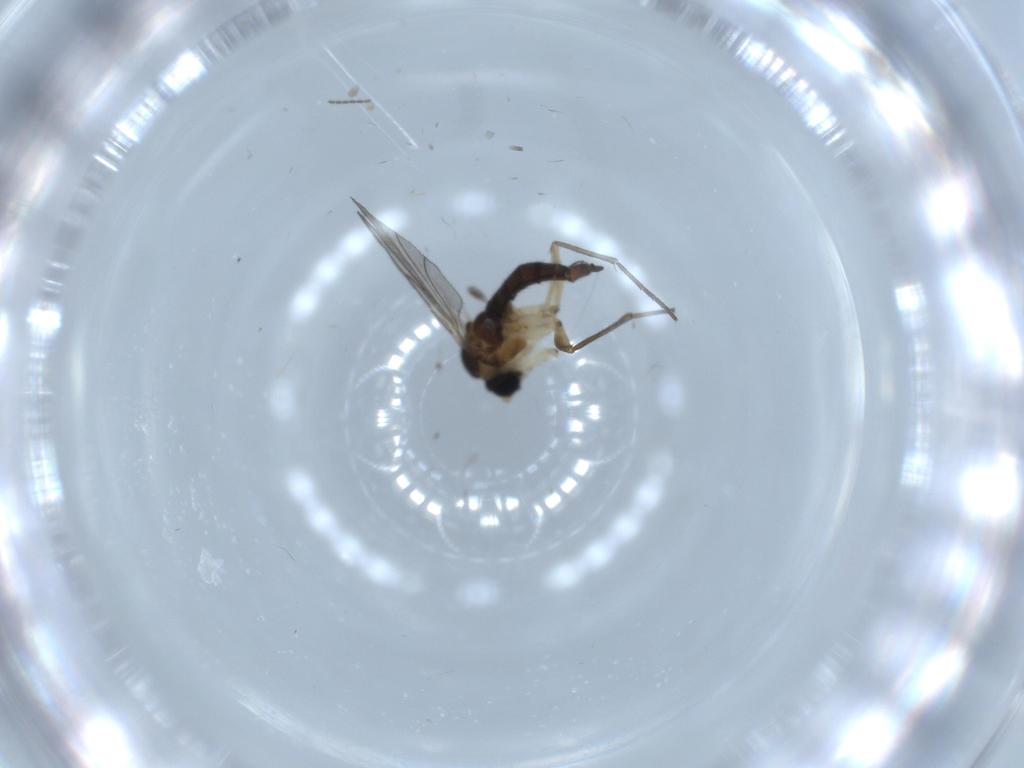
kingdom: Animalia
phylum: Arthropoda
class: Insecta
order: Diptera
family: Sciaridae
